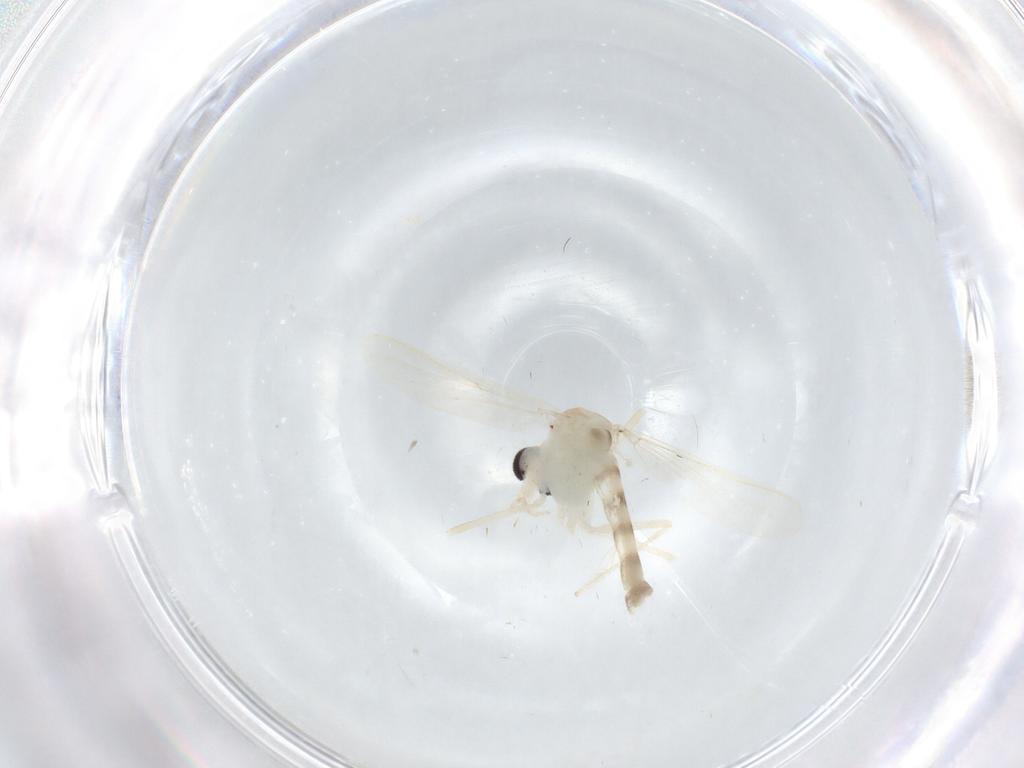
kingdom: Animalia
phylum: Arthropoda
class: Insecta
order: Diptera
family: Chironomidae
